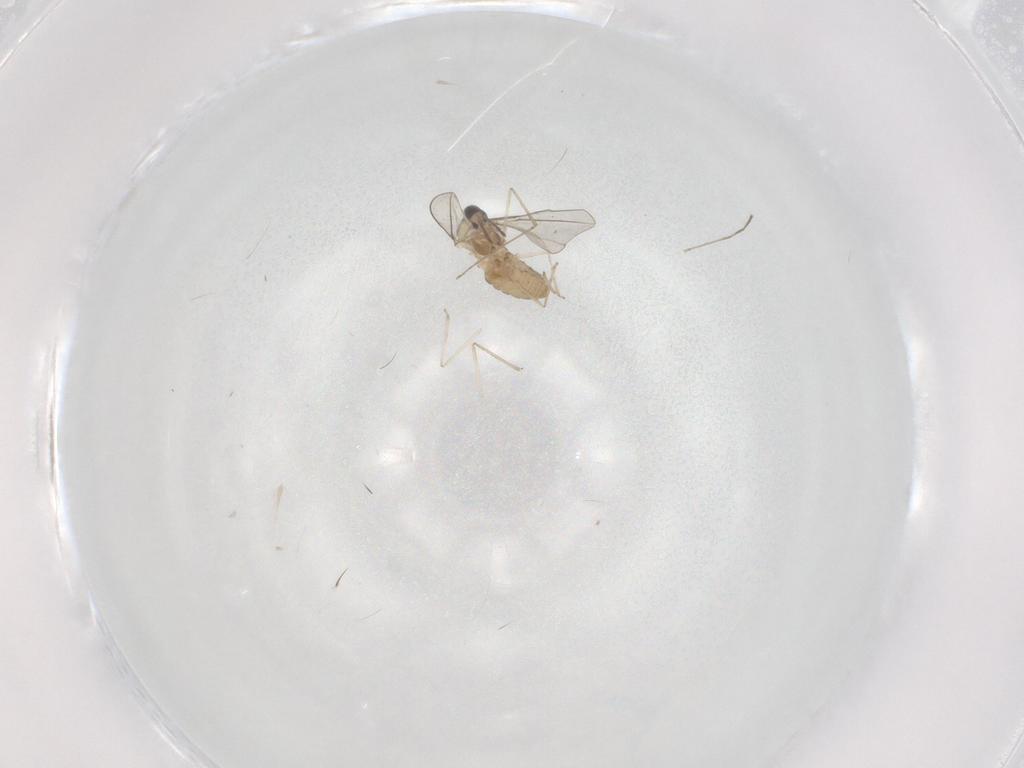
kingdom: Animalia
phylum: Arthropoda
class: Insecta
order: Diptera
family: Cecidomyiidae
